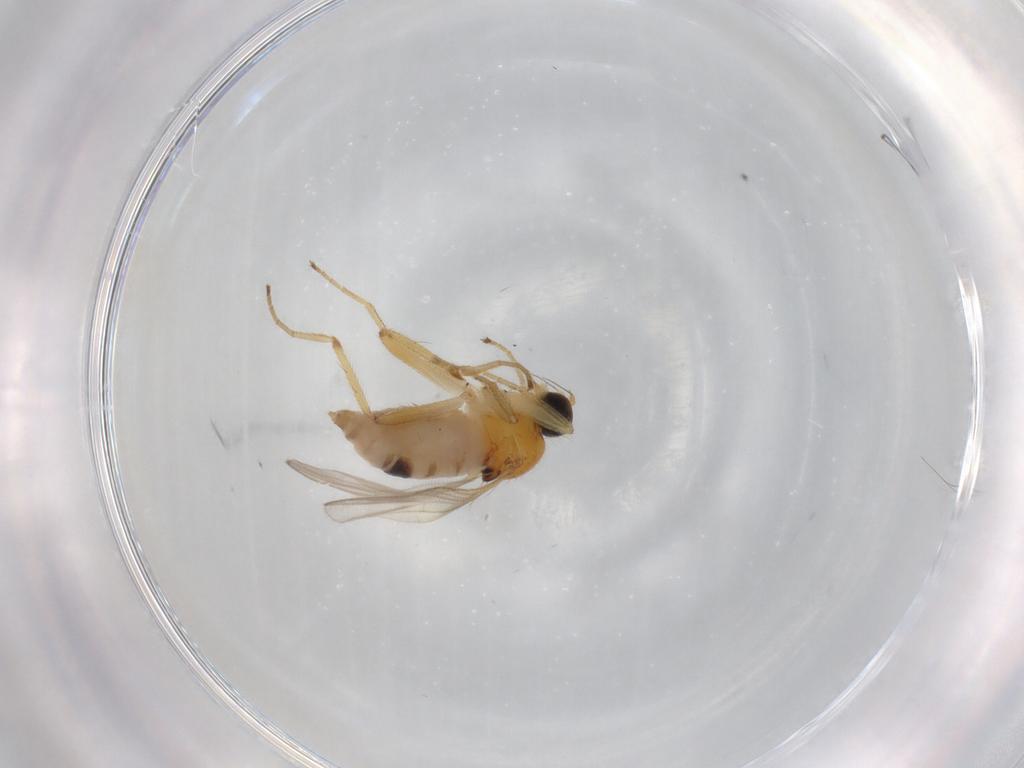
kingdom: Animalia
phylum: Arthropoda
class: Insecta
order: Diptera
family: Hybotidae
